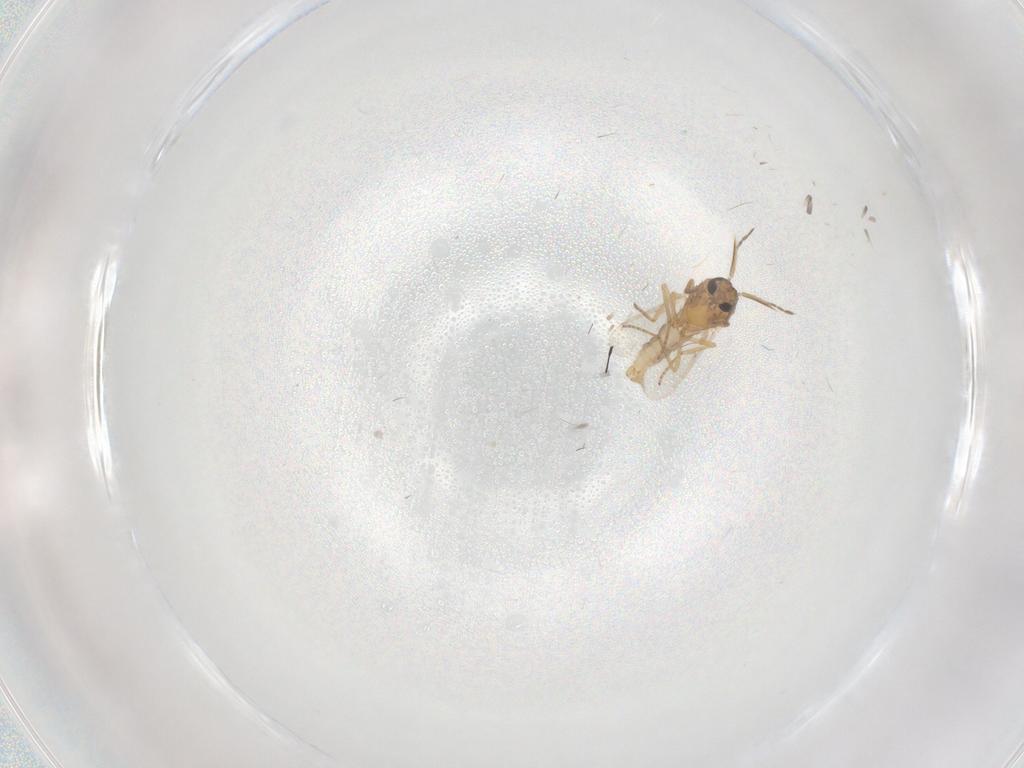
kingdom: Animalia
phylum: Arthropoda
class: Insecta
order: Diptera
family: Ceratopogonidae
